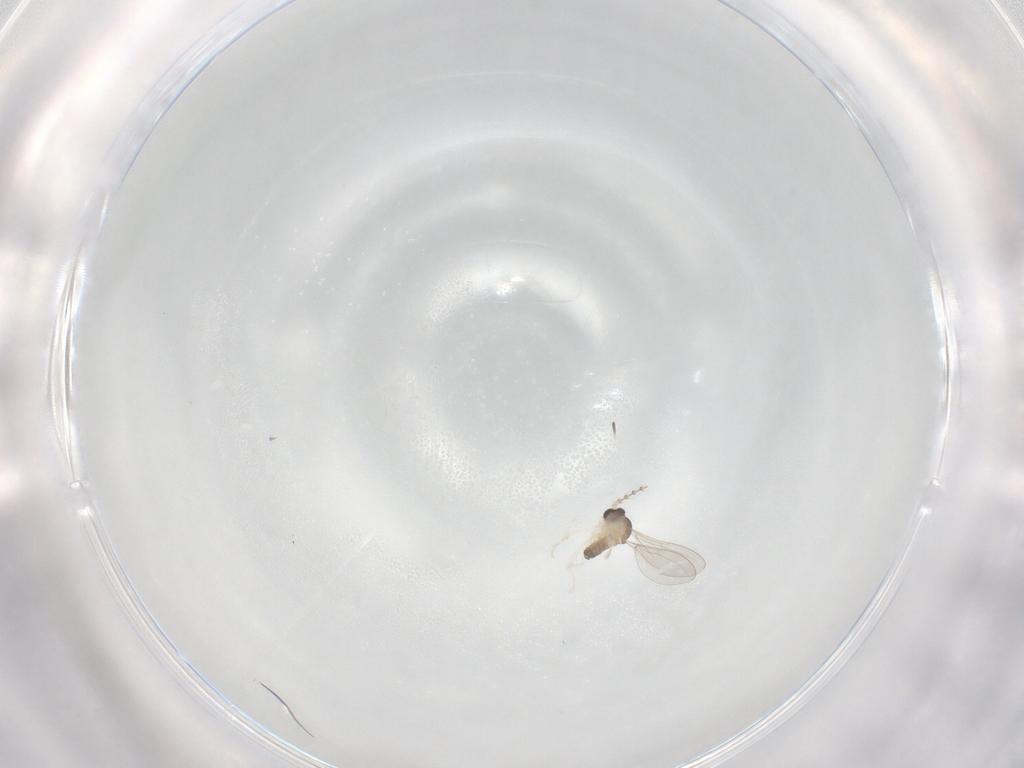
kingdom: Animalia
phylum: Arthropoda
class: Insecta
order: Diptera
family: Cecidomyiidae
